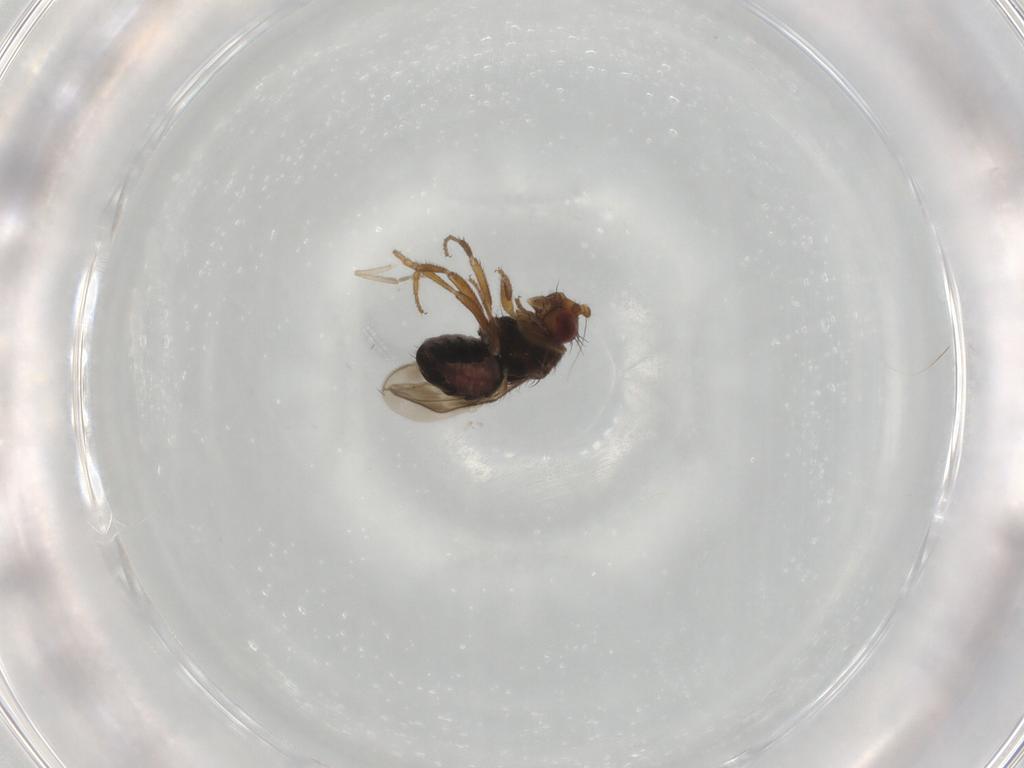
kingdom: Animalia
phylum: Arthropoda
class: Insecta
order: Diptera
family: Sphaeroceridae
